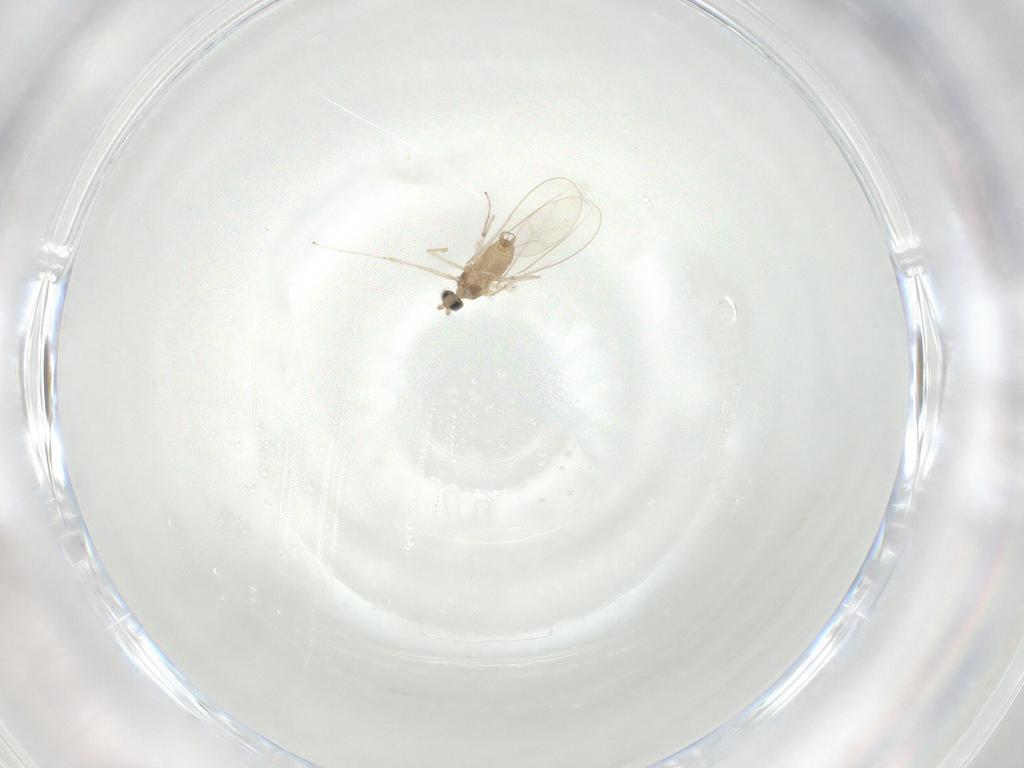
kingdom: Animalia
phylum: Arthropoda
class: Insecta
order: Diptera
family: Cecidomyiidae
